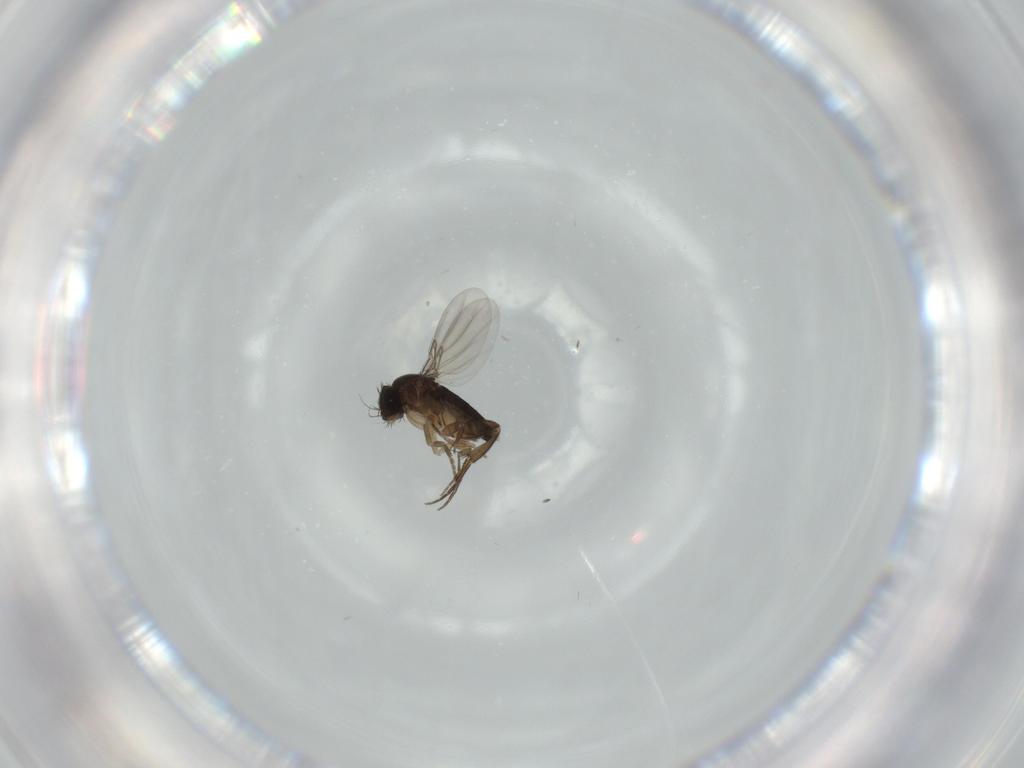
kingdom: Animalia
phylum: Arthropoda
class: Insecta
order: Diptera
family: Phoridae
